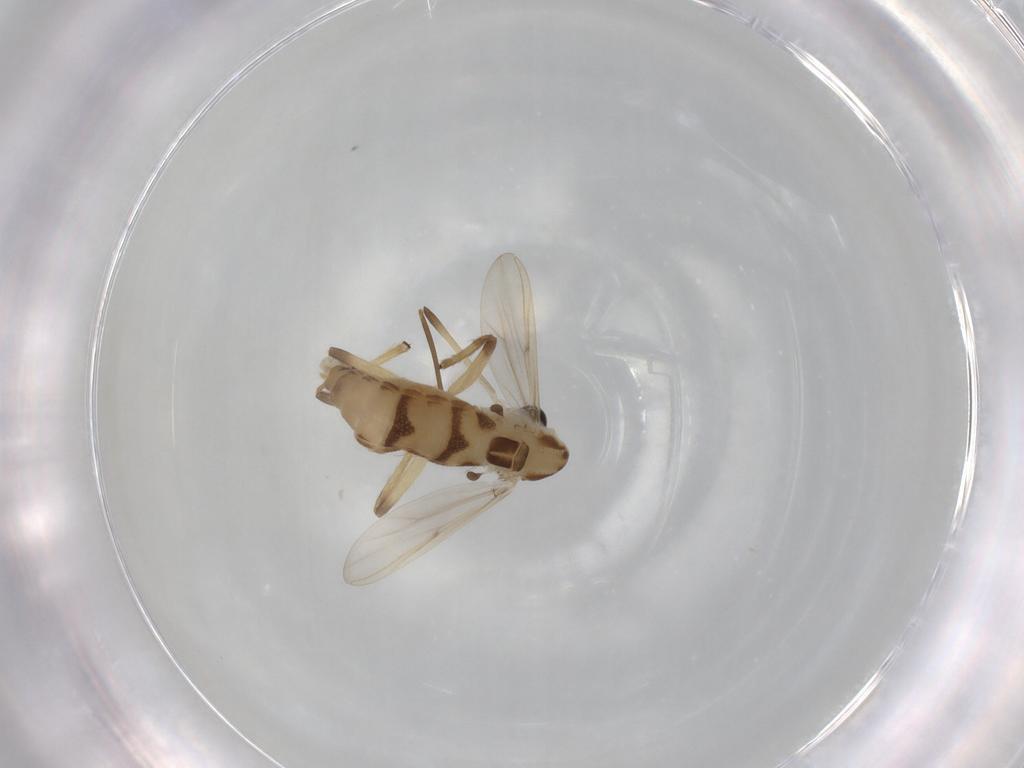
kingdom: Animalia
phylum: Arthropoda
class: Insecta
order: Diptera
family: Chironomidae
